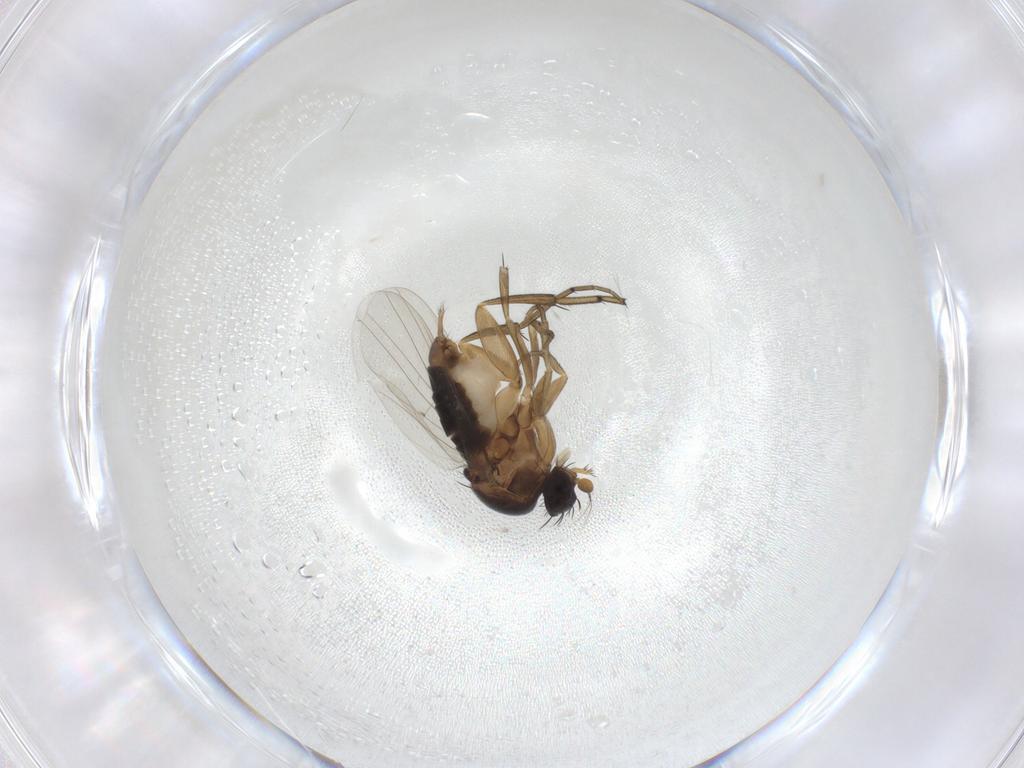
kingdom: Animalia
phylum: Arthropoda
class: Insecta
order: Diptera
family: Phoridae
